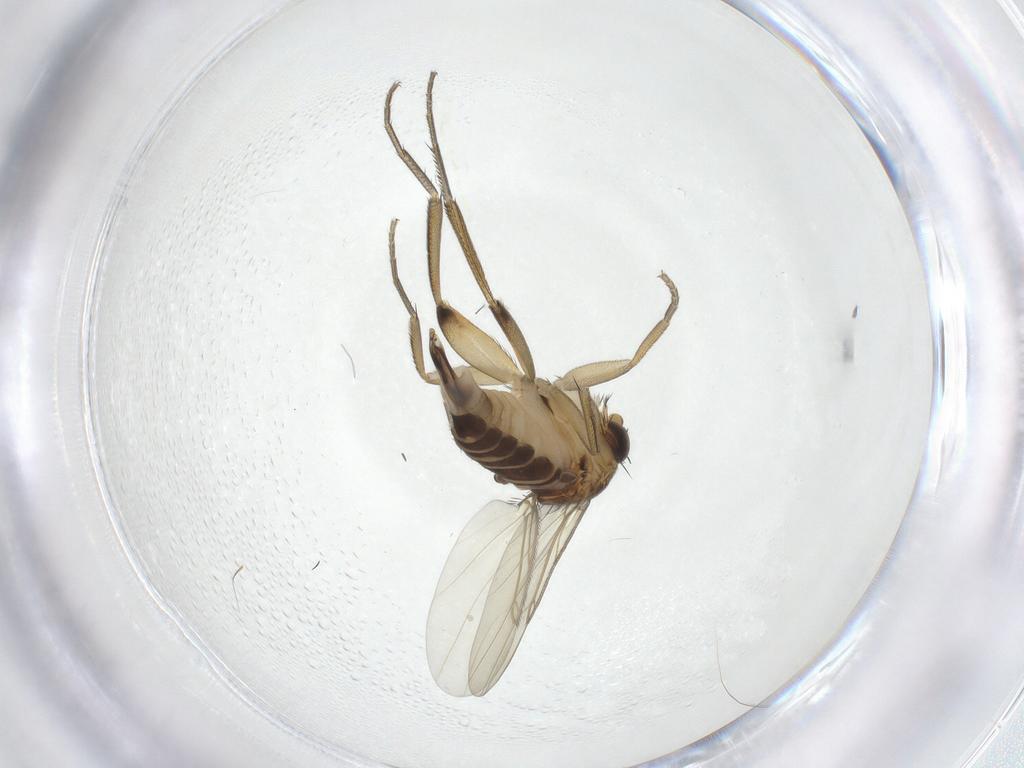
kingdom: Animalia
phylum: Arthropoda
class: Insecta
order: Diptera
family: Phoridae
